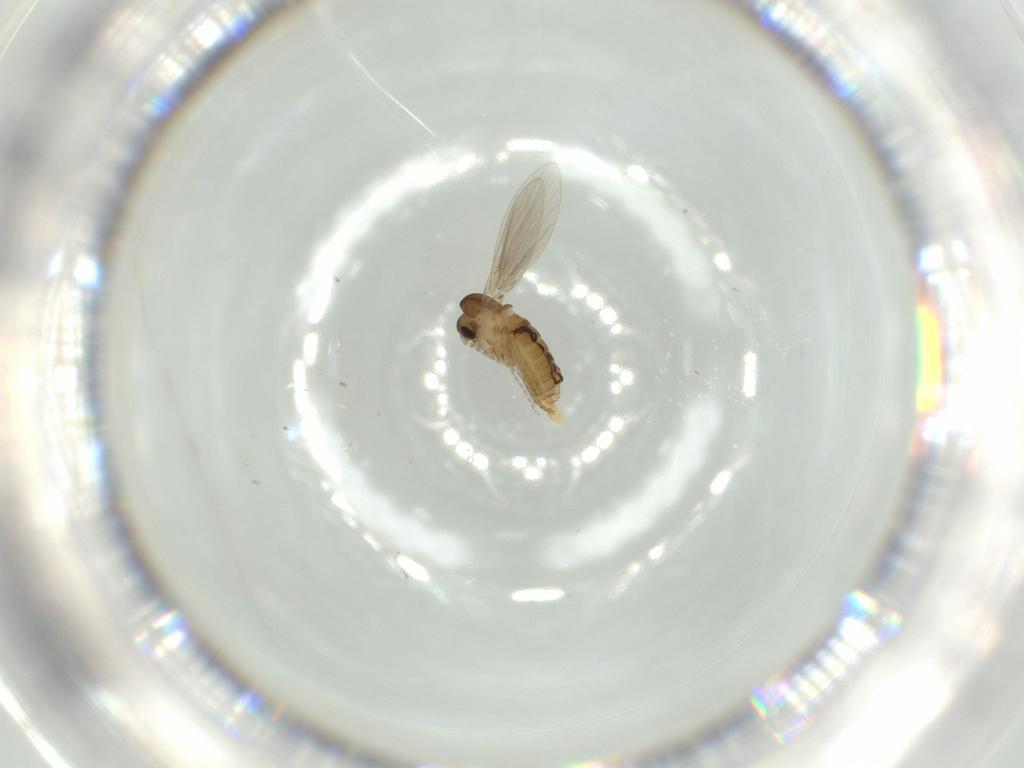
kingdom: Animalia
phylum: Arthropoda
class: Insecta
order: Diptera
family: Psychodidae
